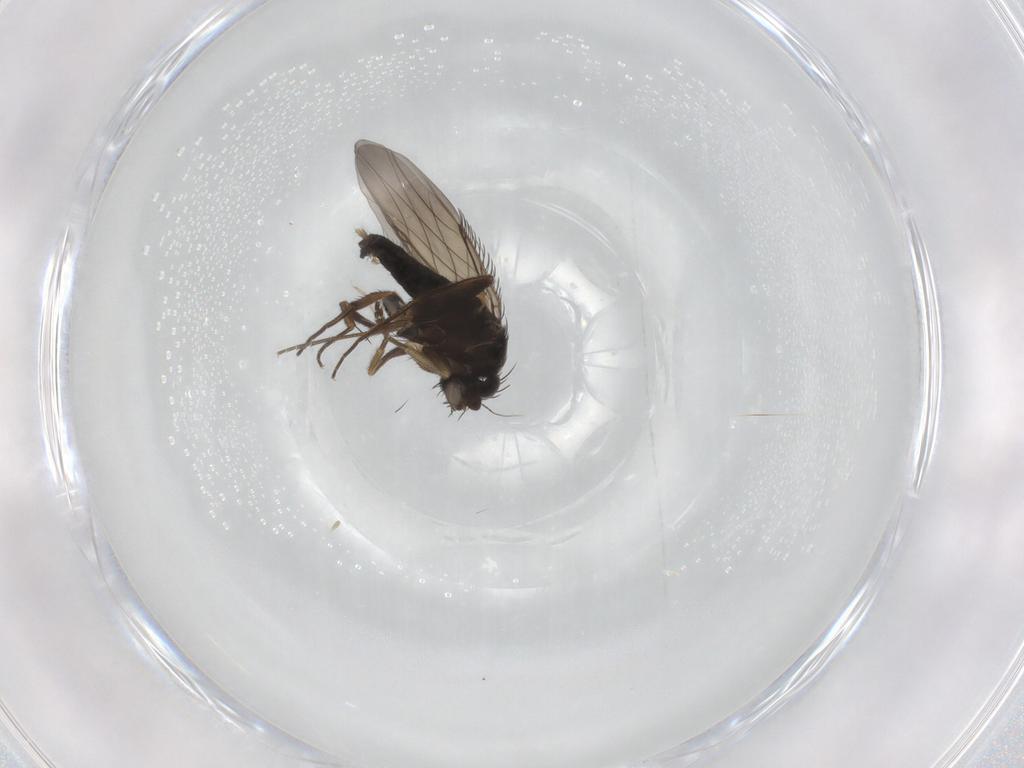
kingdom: Animalia
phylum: Arthropoda
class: Insecta
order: Diptera
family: Phoridae
